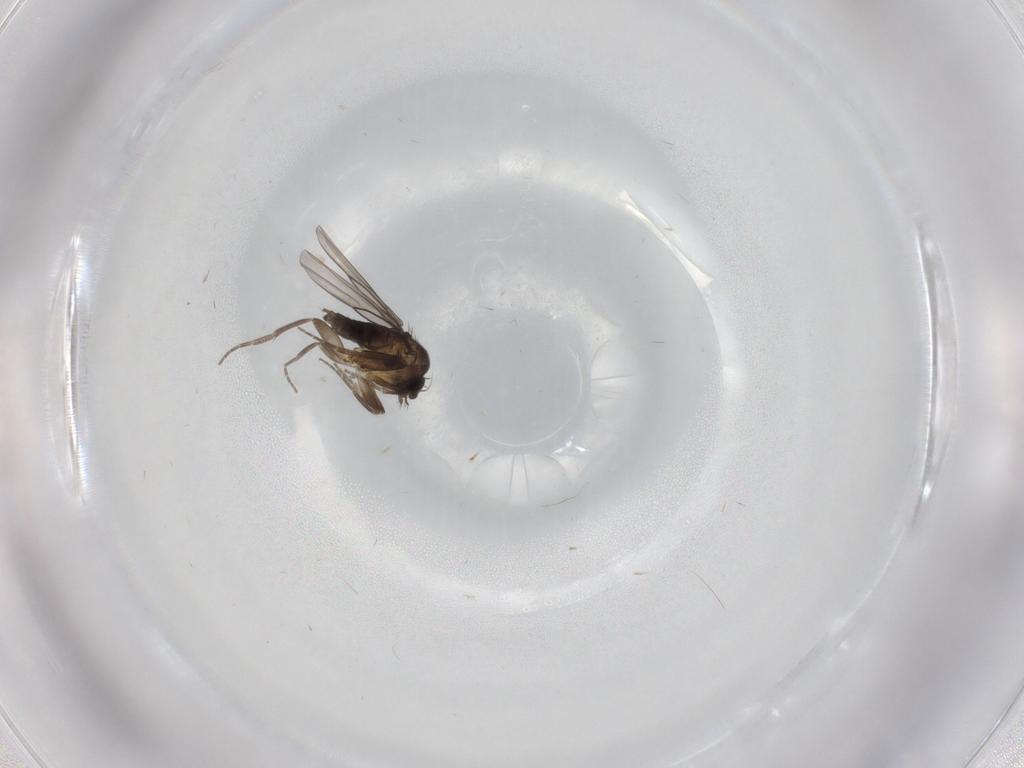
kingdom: Animalia
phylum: Arthropoda
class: Insecta
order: Diptera
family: Phoridae
